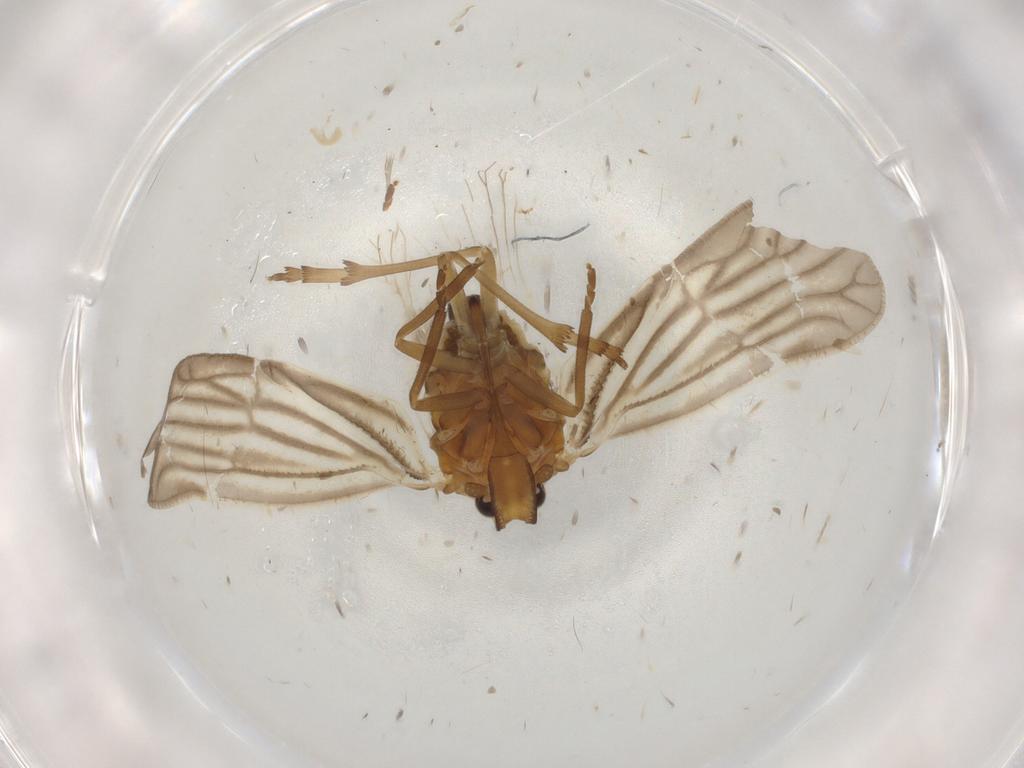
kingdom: Animalia
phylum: Arthropoda
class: Insecta
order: Hemiptera
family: Meenoplidae
